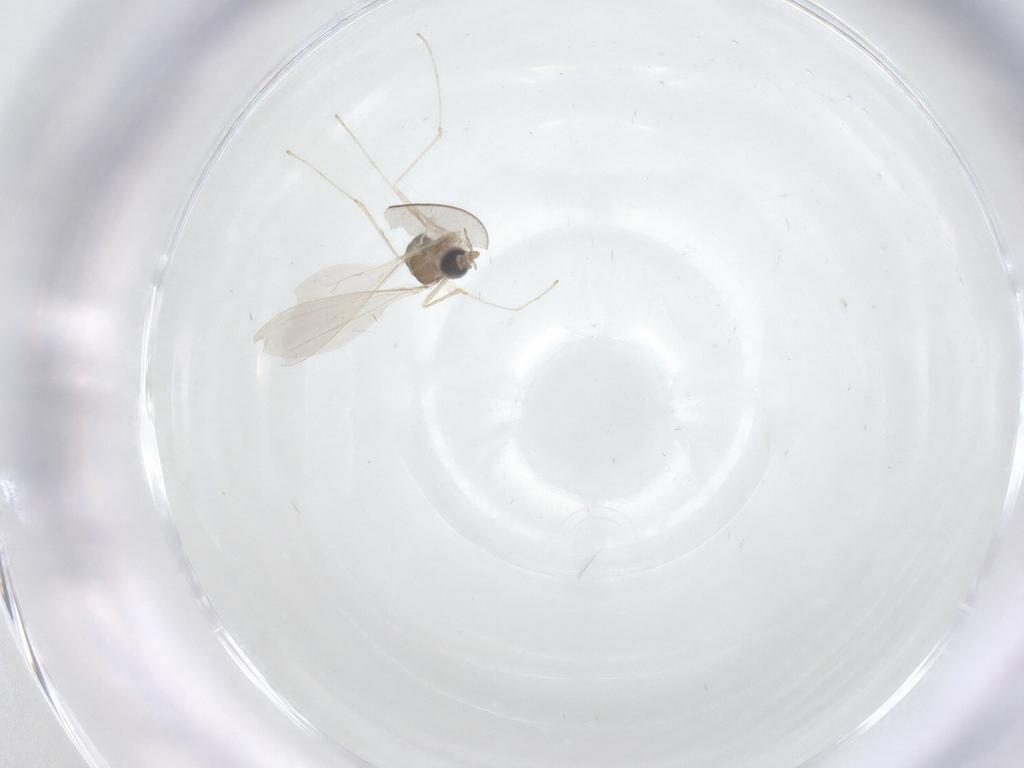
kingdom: Animalia
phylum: Arthropoda
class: Insecta
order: Diptera
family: Cecidomyiidae
